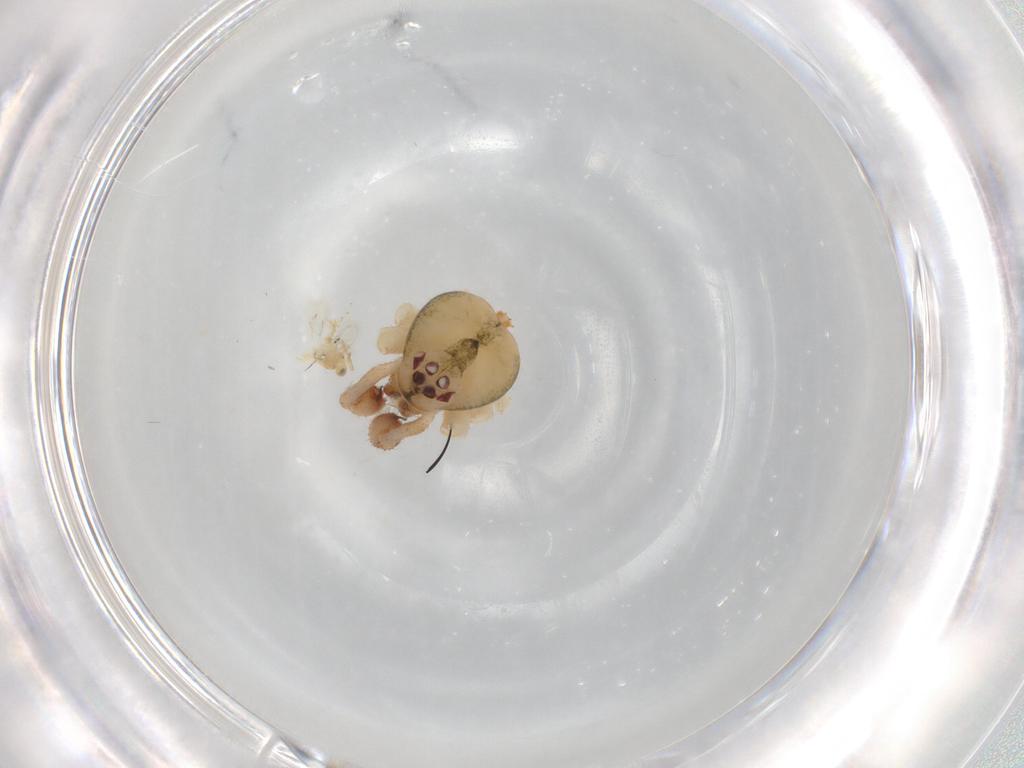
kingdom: Animalia
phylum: Arthropoda
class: Arachnida
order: Araneae
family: Theridiidae
